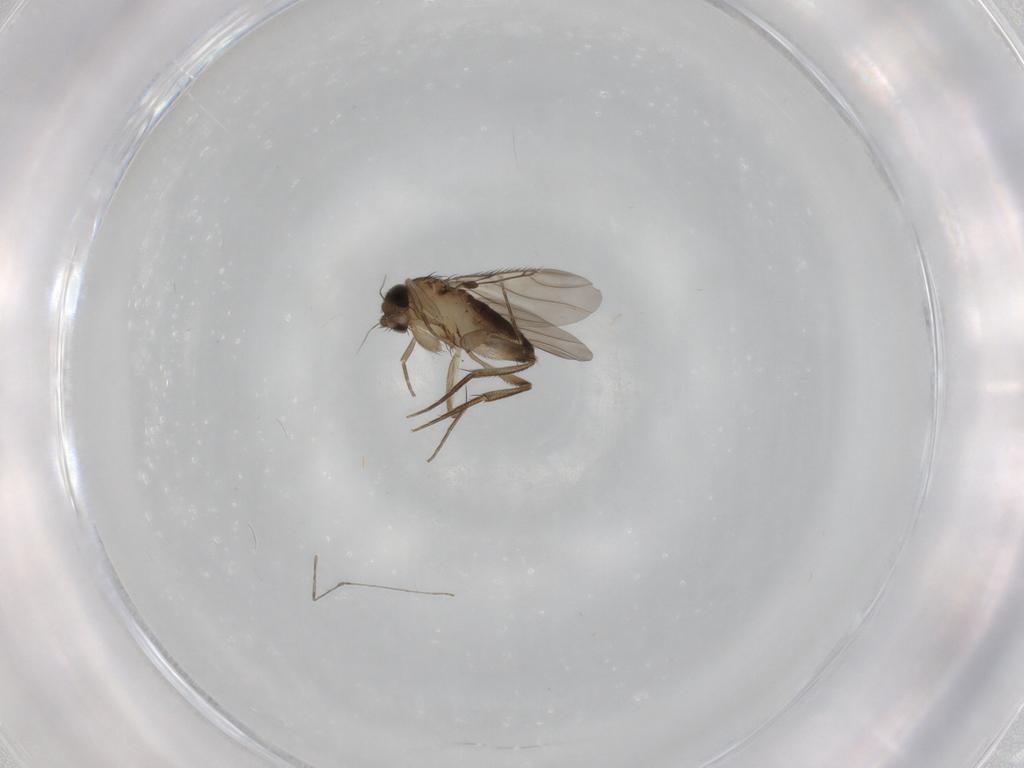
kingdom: Animalia
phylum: Arthropoda
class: Insecta
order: Diptera
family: Phoridae
